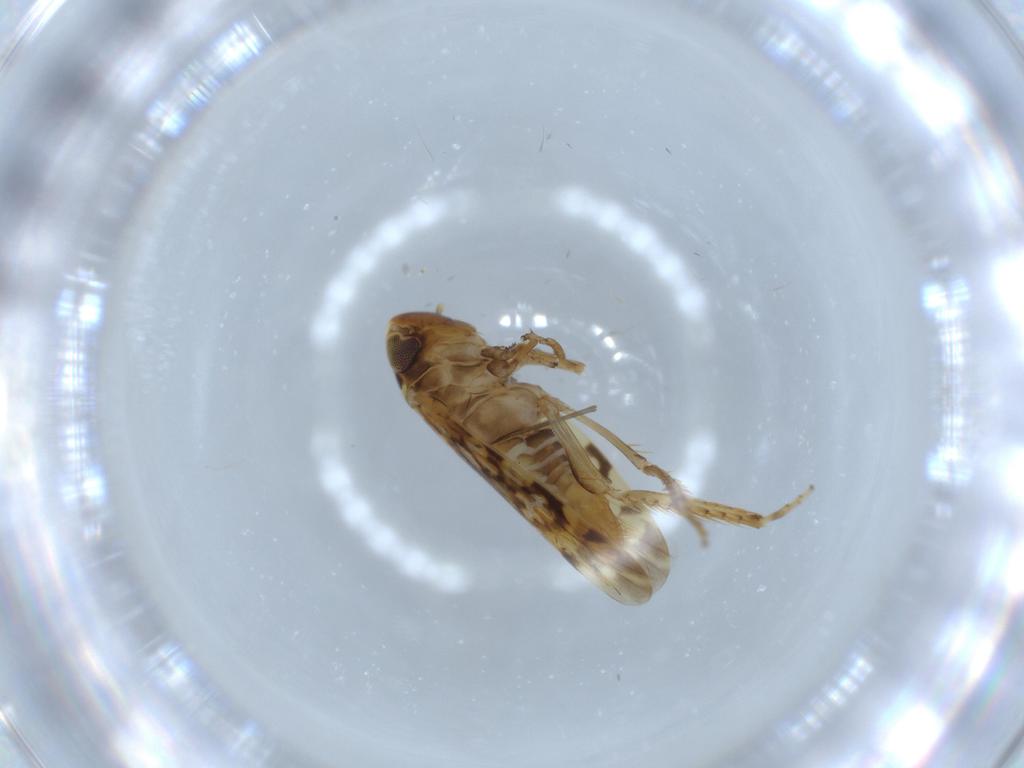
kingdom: Animalia
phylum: Arthropoda
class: Insecta
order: Hemiptera
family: Cicadellidae
